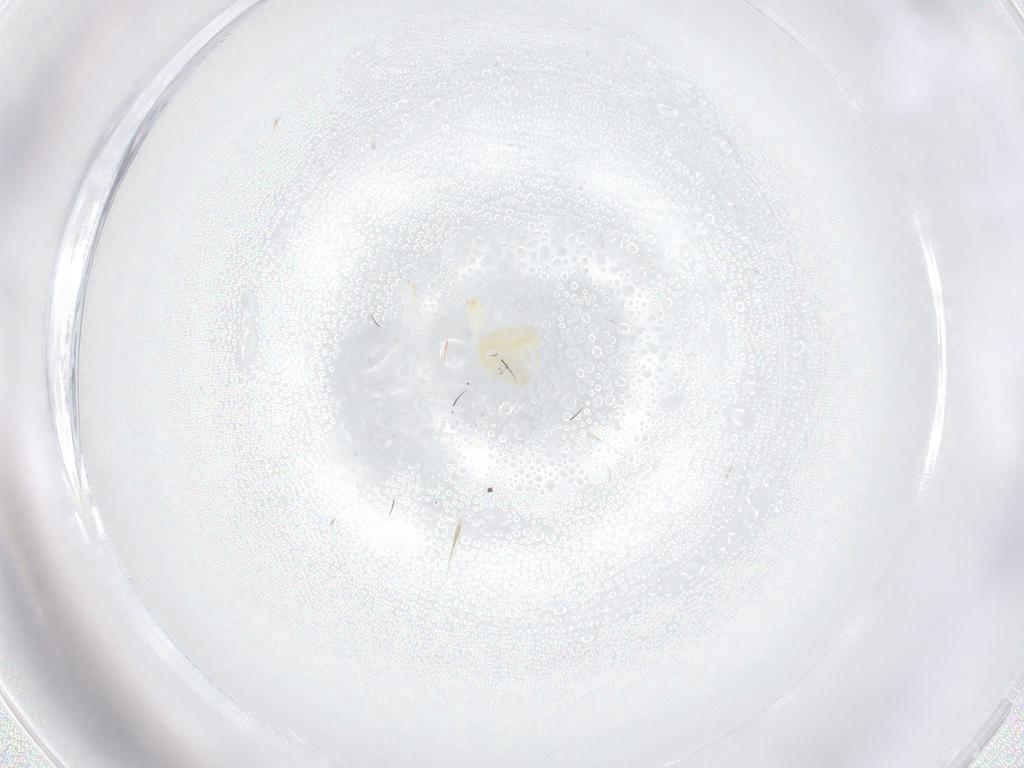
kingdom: Animalia
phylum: Arthropoda
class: Insecta
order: Hemiptera
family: Aleyrodidae
